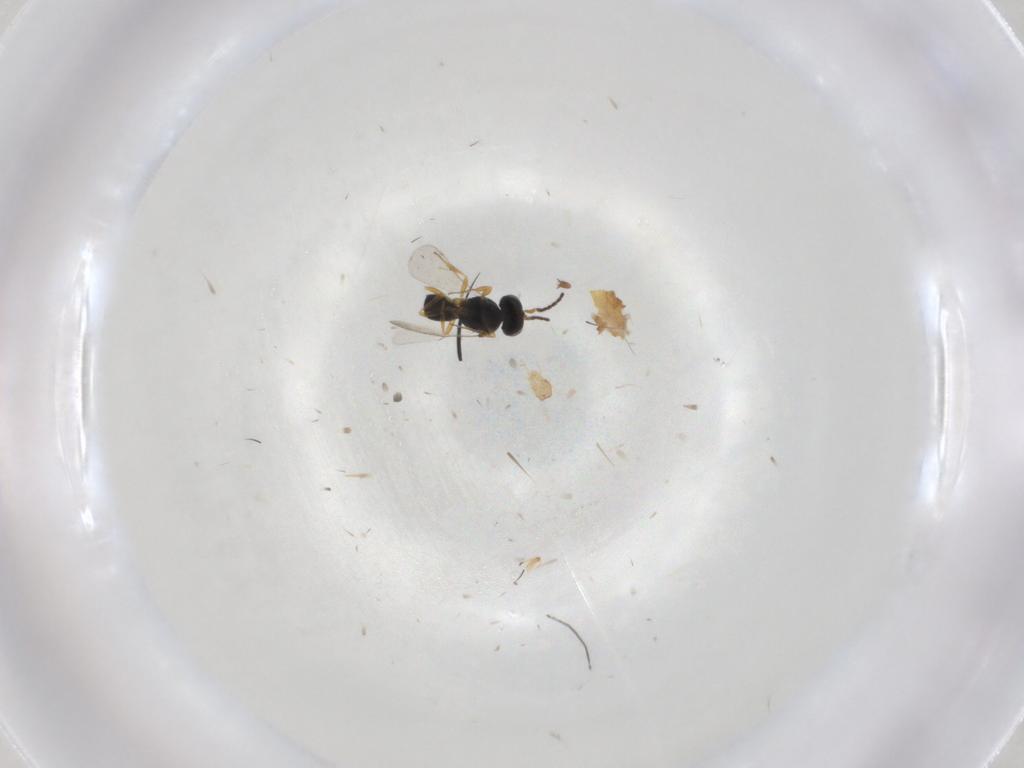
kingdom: Animalia
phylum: Arthropoda
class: Insecta
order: Hymenoptera
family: Scelionidae
